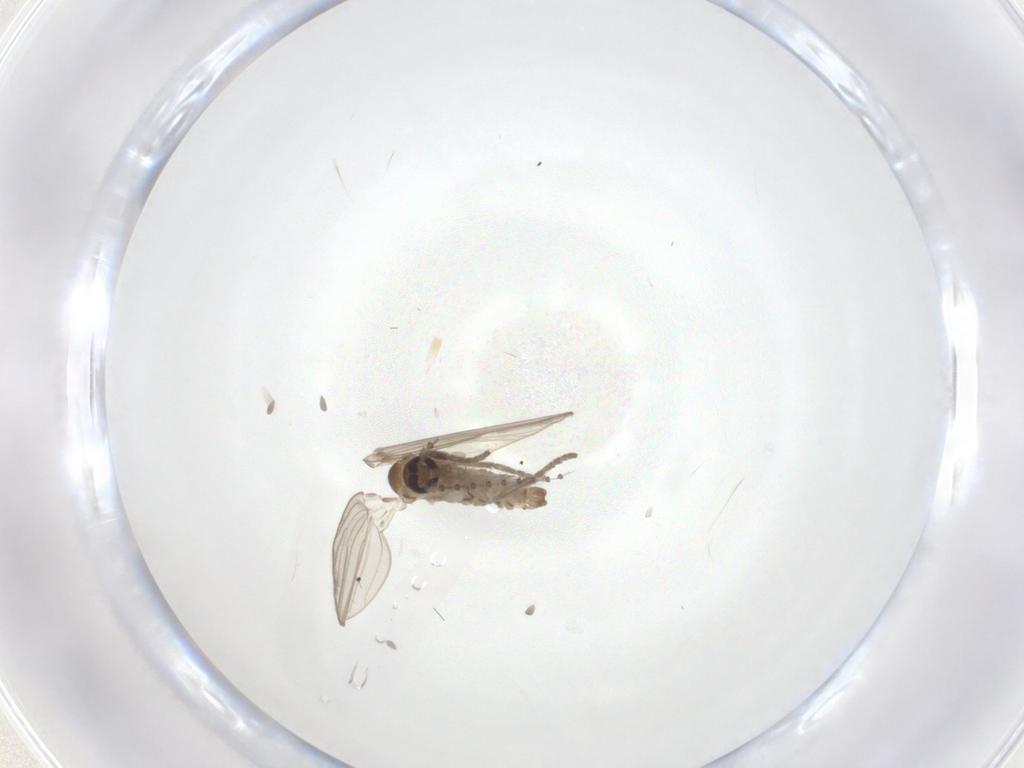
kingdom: Animalia
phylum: Arthropoda
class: Insecta
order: Diptera
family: Psychodidae
